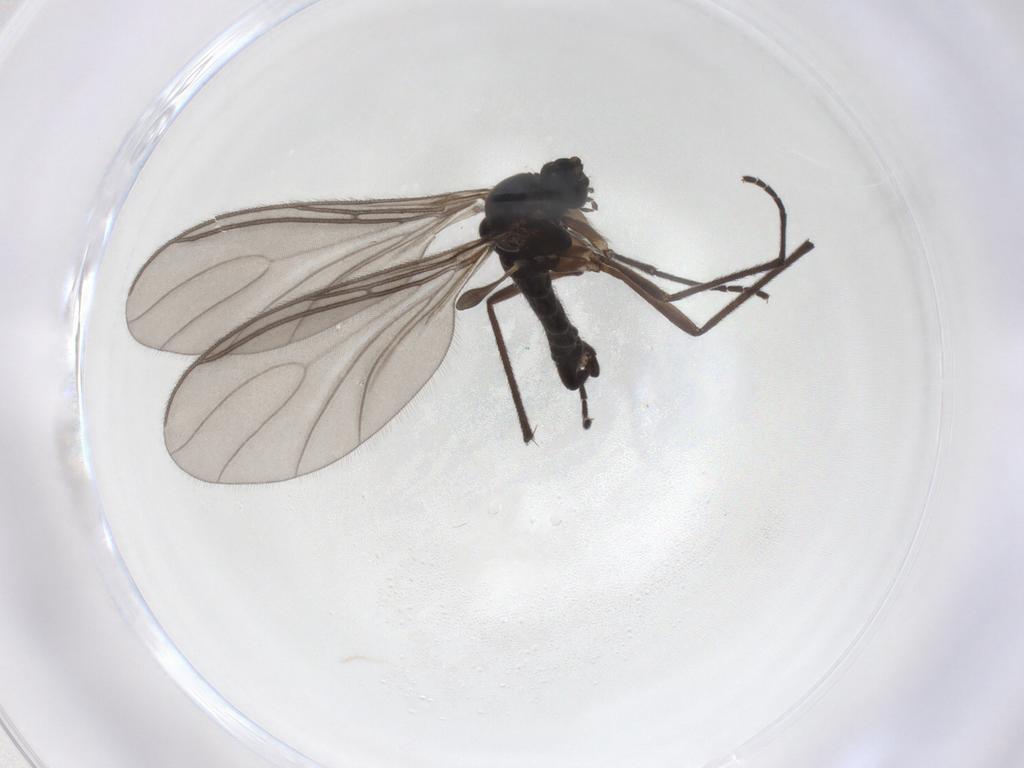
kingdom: Animalia
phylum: Arthropoda
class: Insecta
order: Diptera
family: Sciaridae
